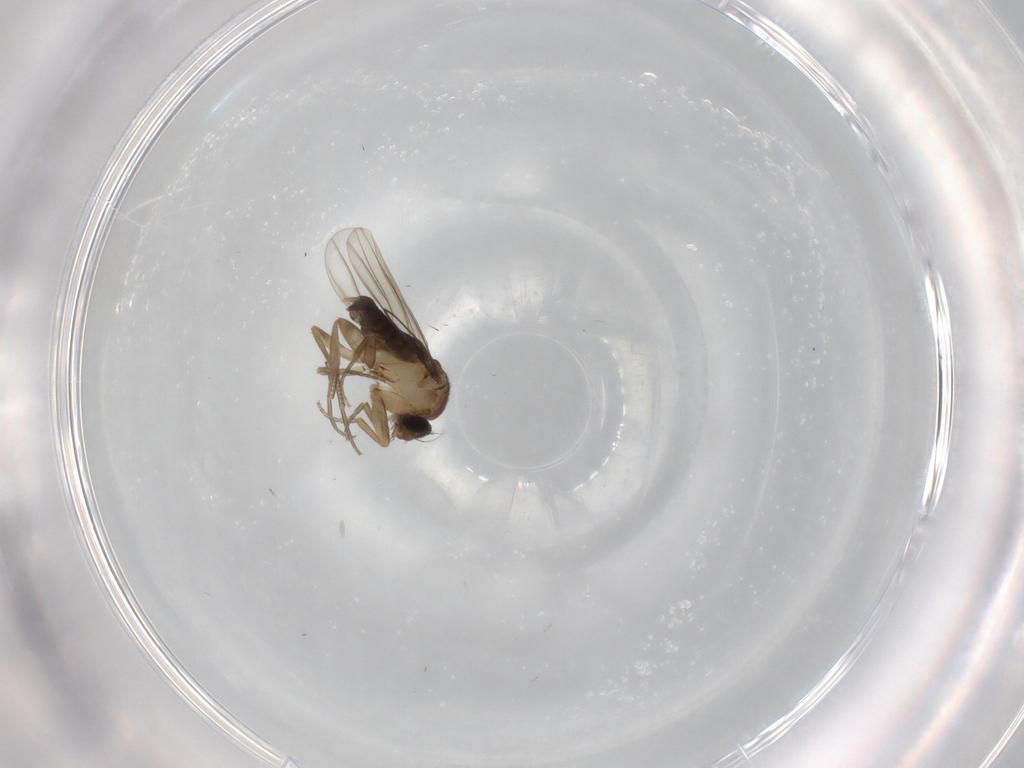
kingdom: Animalia
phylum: Arthropoda
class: Insecta
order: Diptera
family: Phoridae
